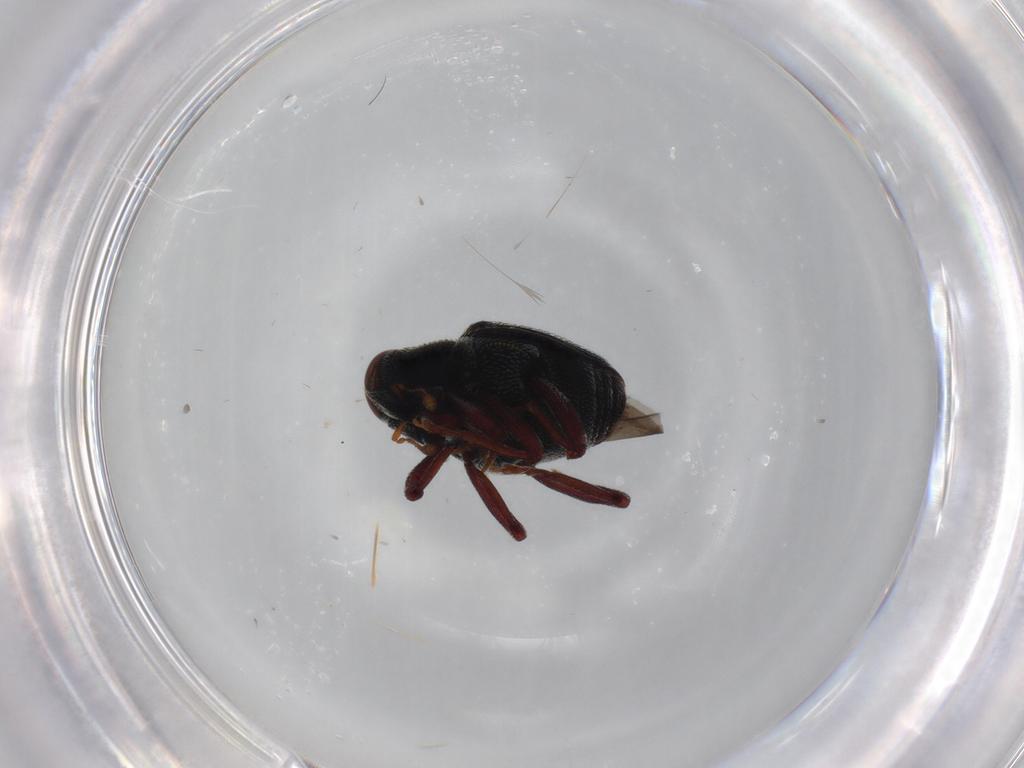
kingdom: Animalia
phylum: Arthropoda
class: Insecta
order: Coleoptera
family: Curculionidae
